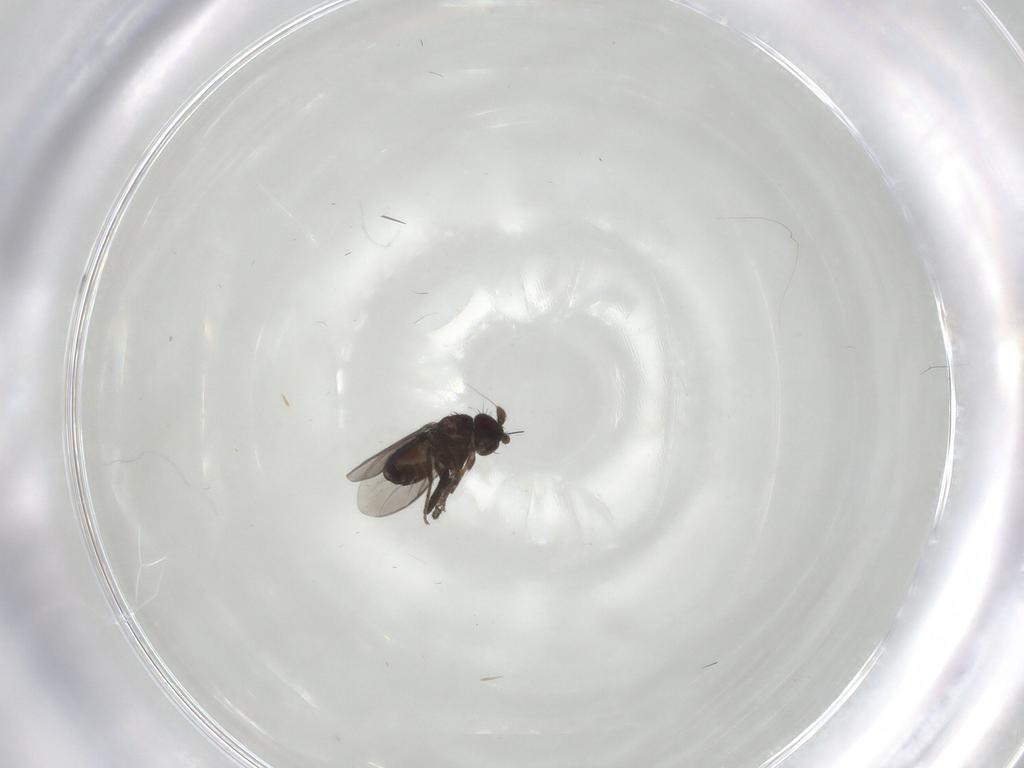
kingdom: Animalia
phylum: Arthropoda
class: Insecta
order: Diptera
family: Sphaeroceridae
